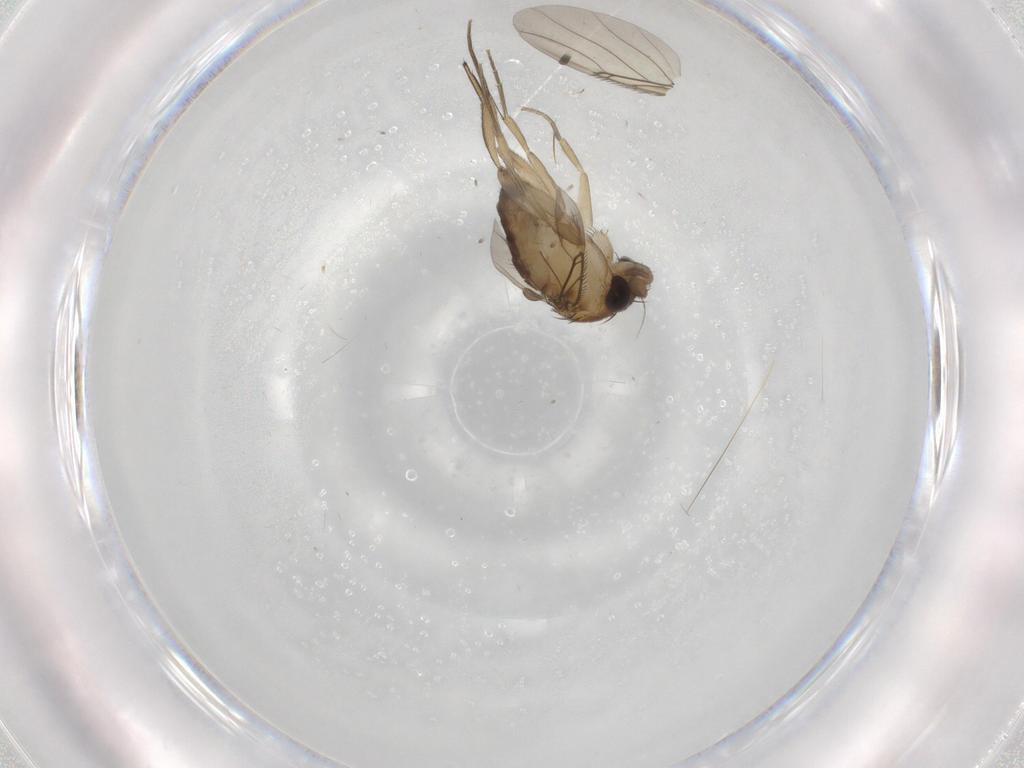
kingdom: Animalia
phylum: Arthropoda
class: Insecta
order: Diptera
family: Phoridae
